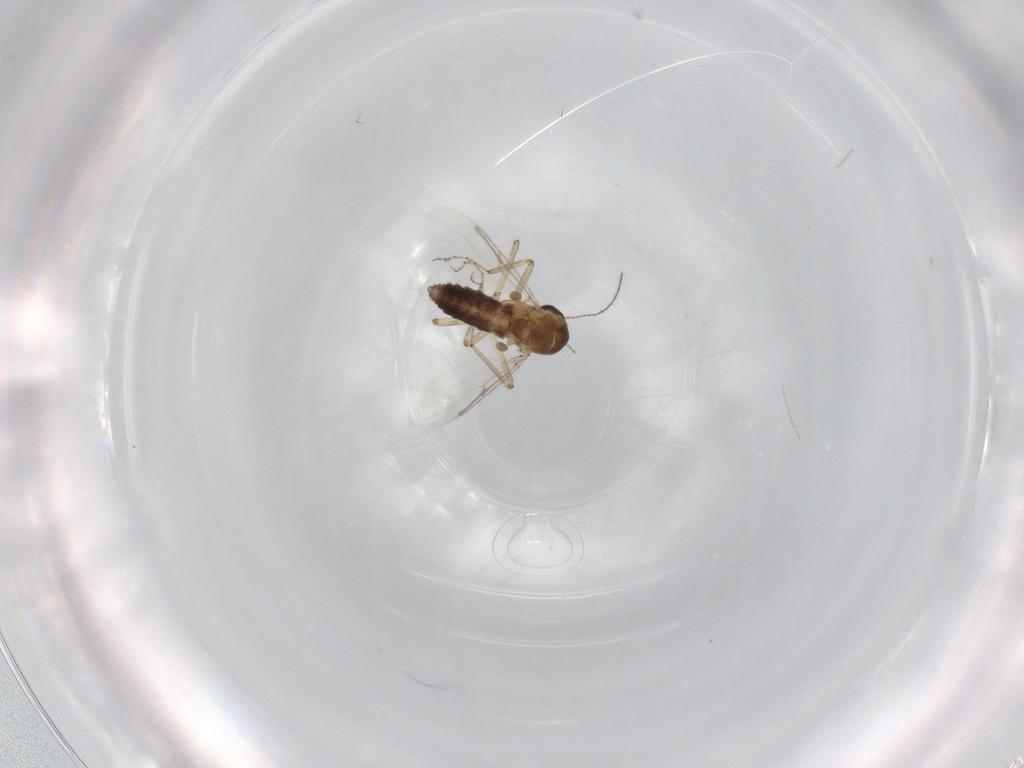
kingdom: Animalia
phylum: Arthropoda
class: Insecta
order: Diptera
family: Ceratopogonidae
